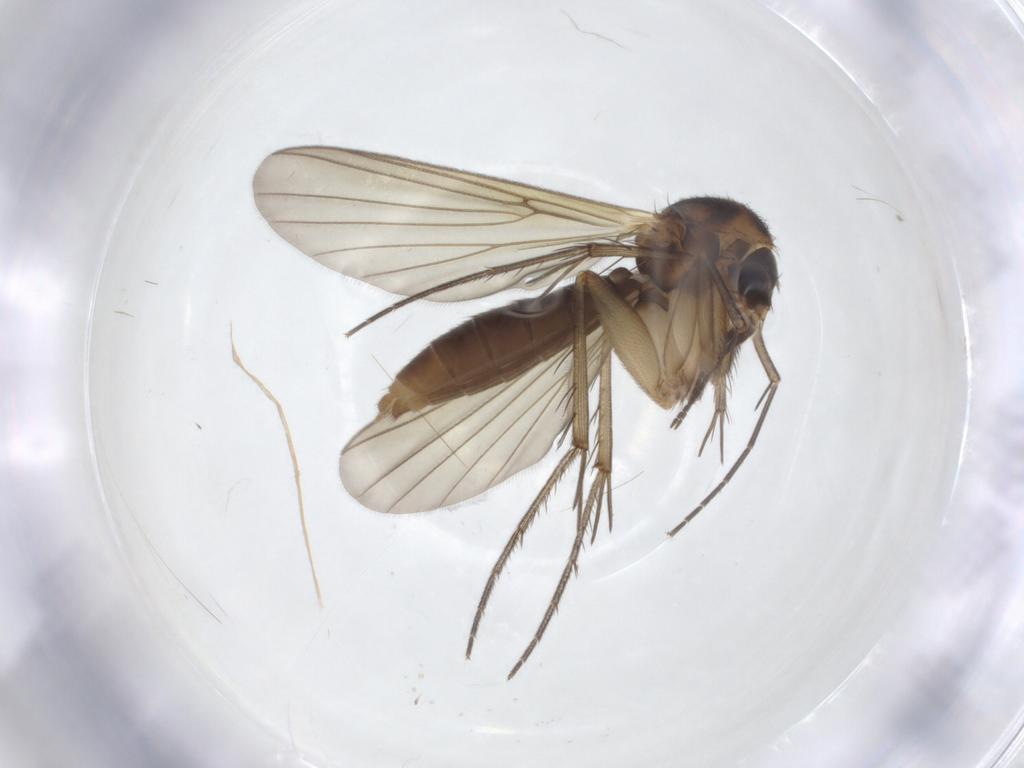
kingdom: Animalia
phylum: Arthropoda
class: Insecta
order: Diptera
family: Mycetophilidae
